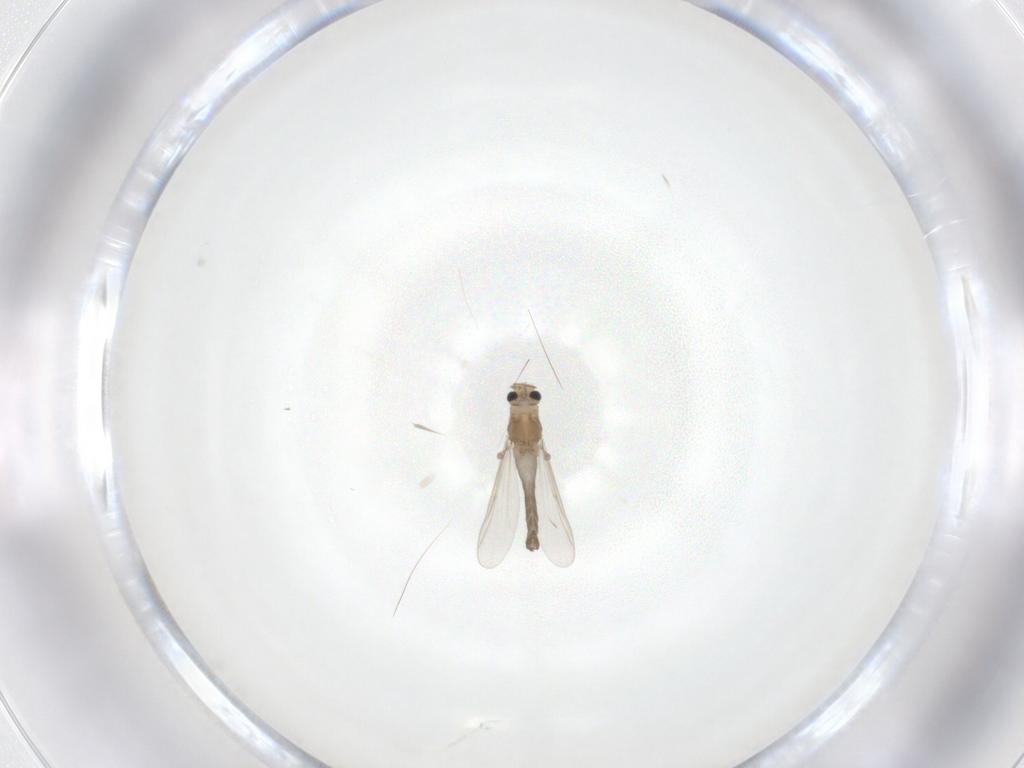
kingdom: Animalia
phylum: Arthropoda
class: Insecta
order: Diptera
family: Chironomidae
